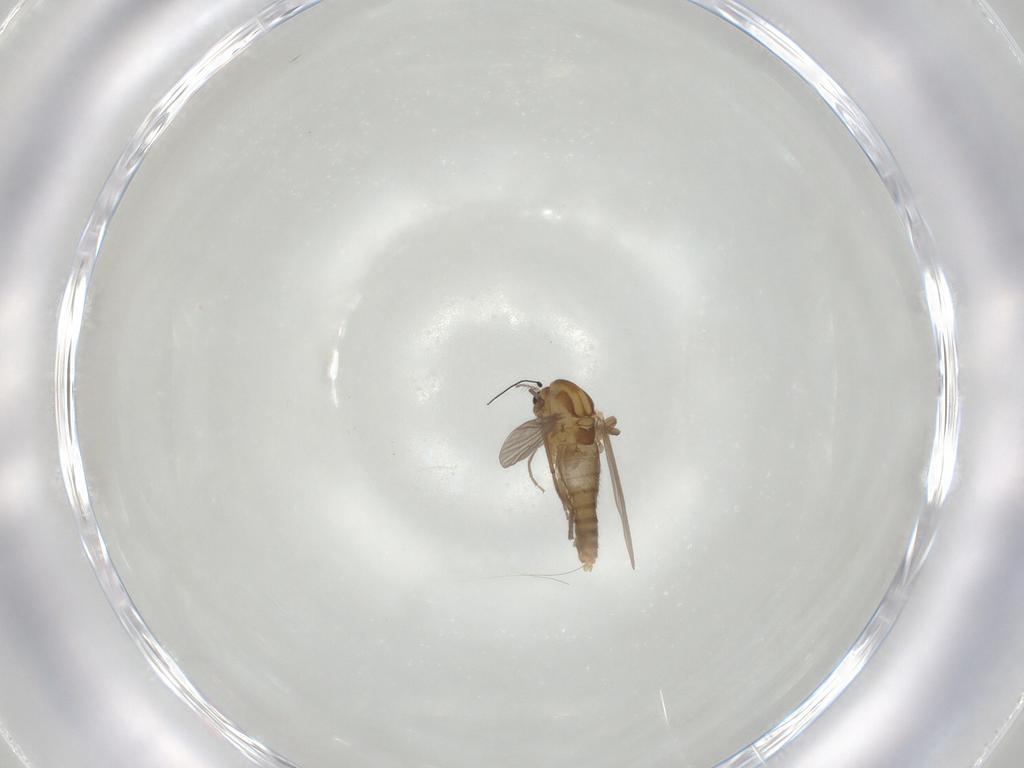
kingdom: Animalia
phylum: Arthropoda
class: Insecta
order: Diptera
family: Chironomidae
